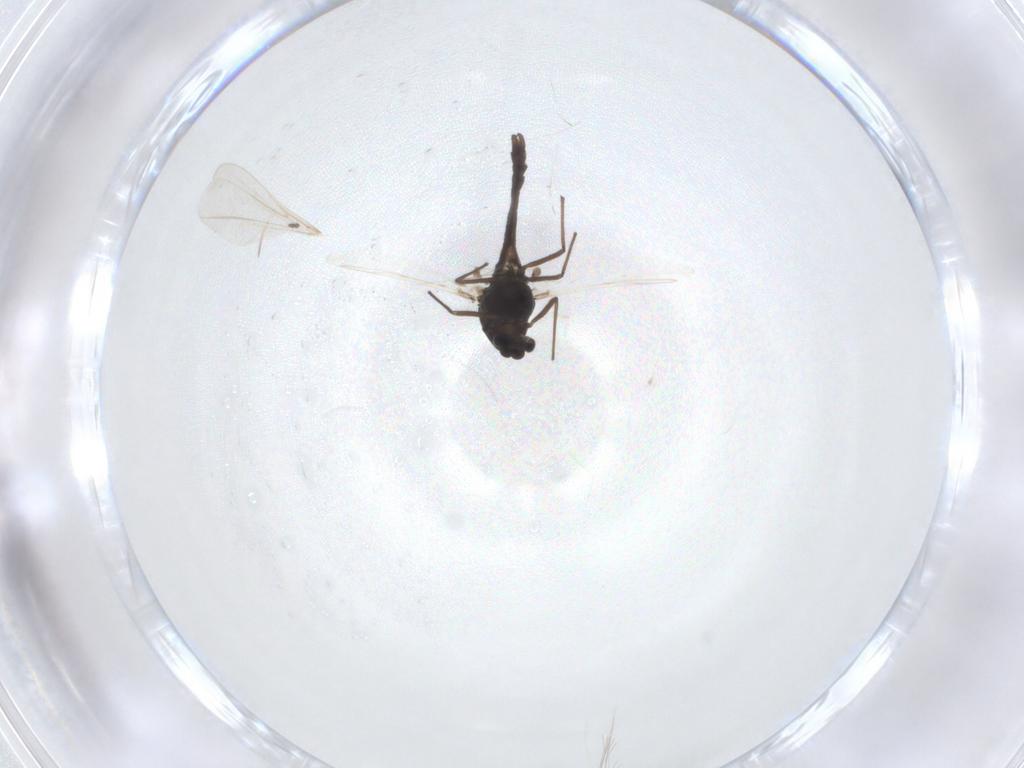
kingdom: Animalia
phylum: Arthropoda
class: Insecta
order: Diptera
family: Chironomidae
